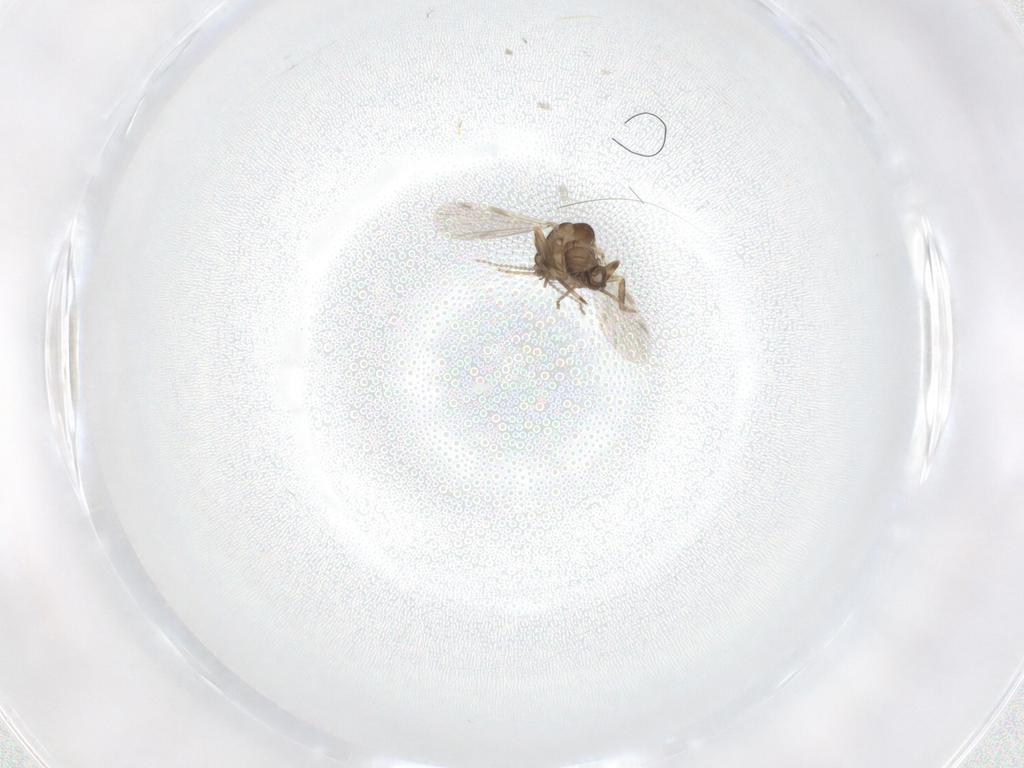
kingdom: Animalia
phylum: Arthropoda
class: Insecta
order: Diptera
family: Ceratopogonidae
